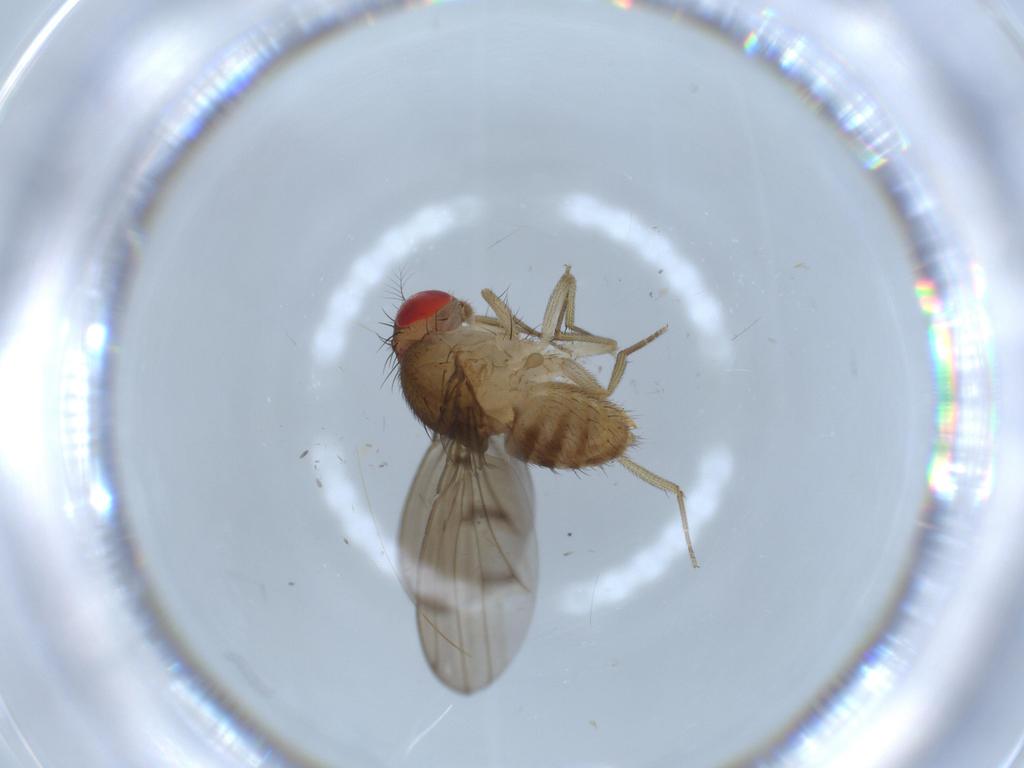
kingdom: Animalia
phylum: Arthropoda
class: Insecta
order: Diptera
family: Drosophilidae
